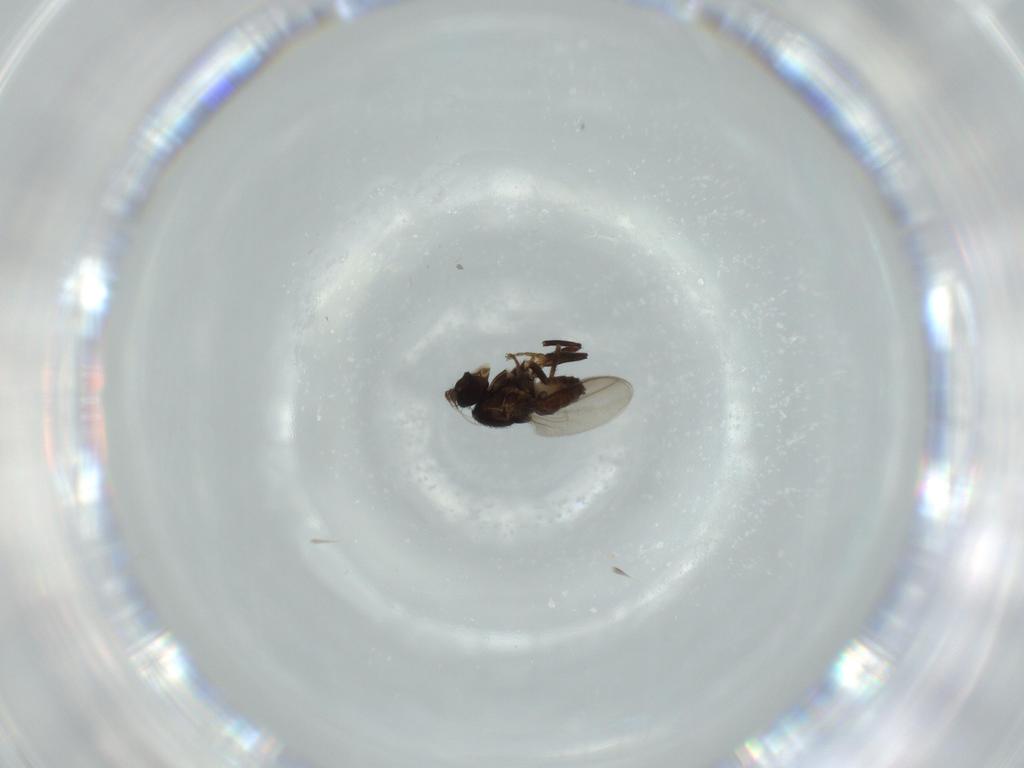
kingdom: Animalia
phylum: Arthropoda
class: Insecta
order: Diptera
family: Sphaeroceridae
